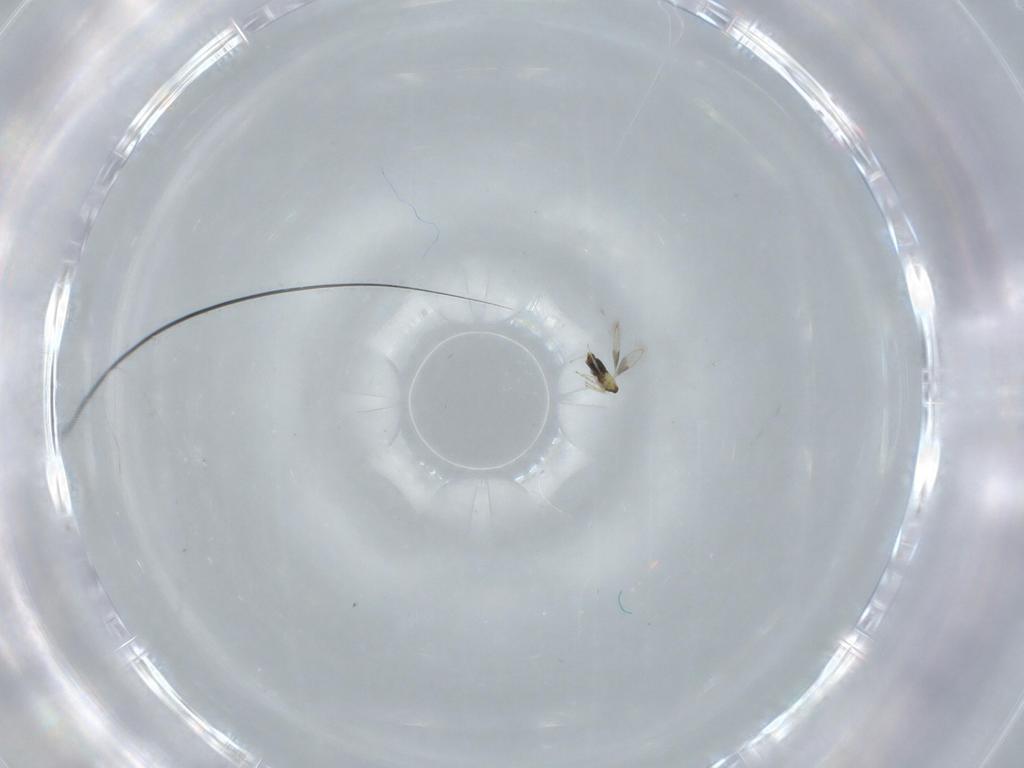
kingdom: Animalia
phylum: Arthropoda
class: Insecta
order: Hymenoptera
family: Aphelinidae
